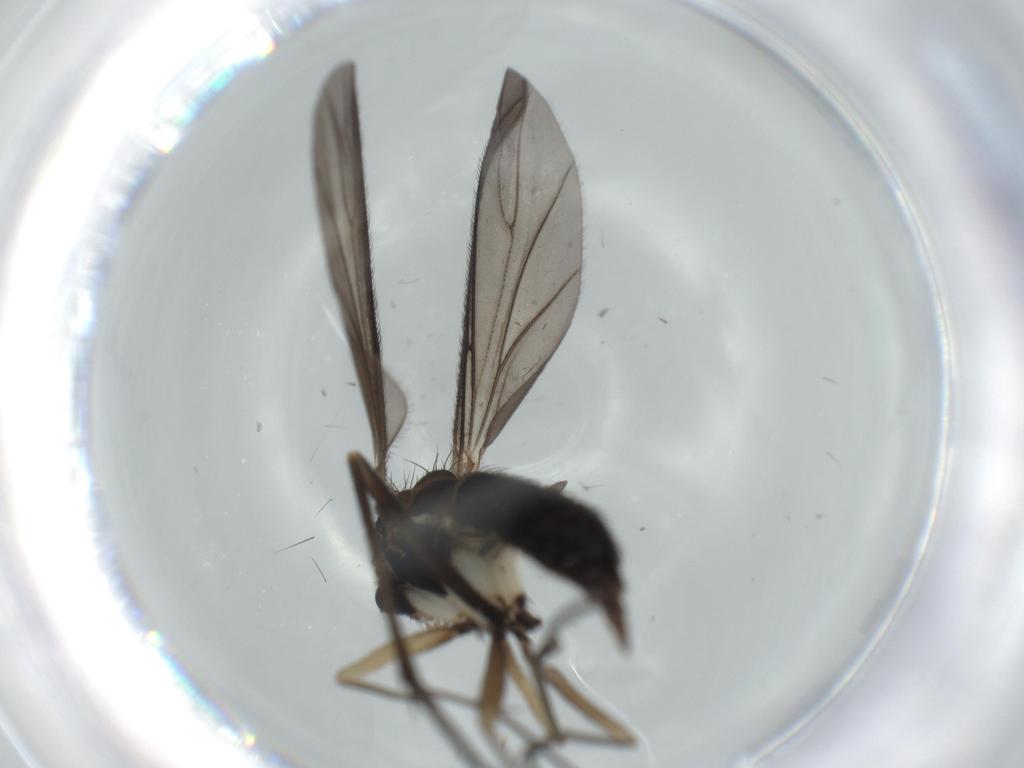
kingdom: Animalia
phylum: Arthropoda
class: Insecta
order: Diptera
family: Sciaridae
